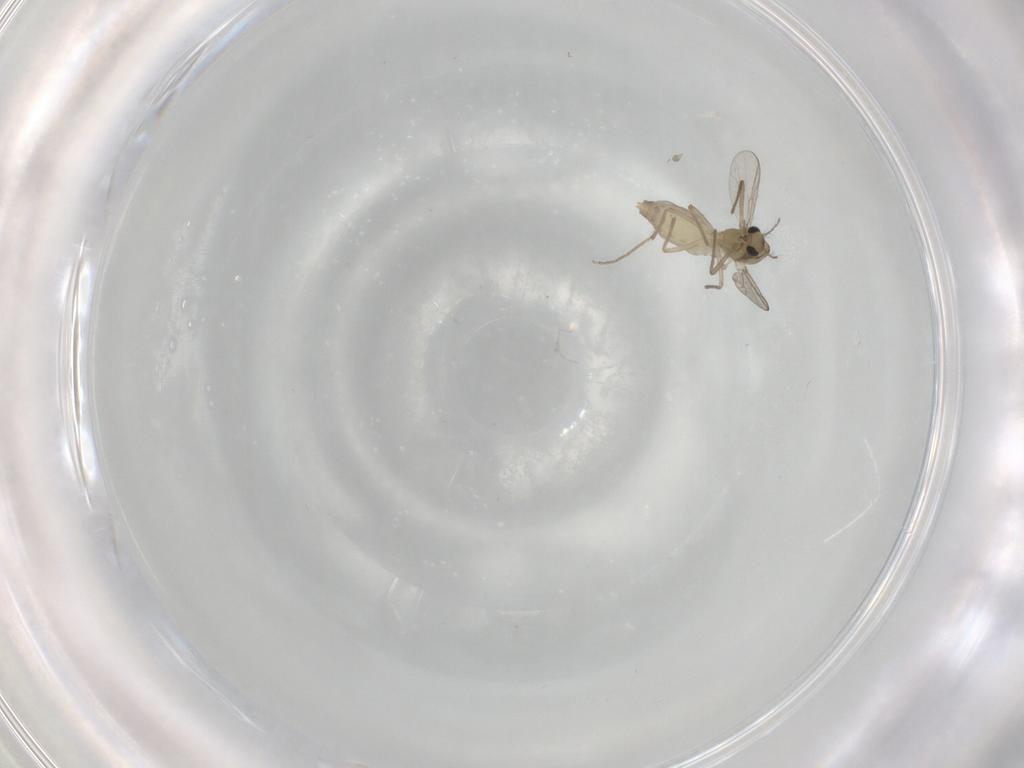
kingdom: Animalia
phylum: Arthropoda
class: Insecta
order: Diptera
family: Chironomidae
